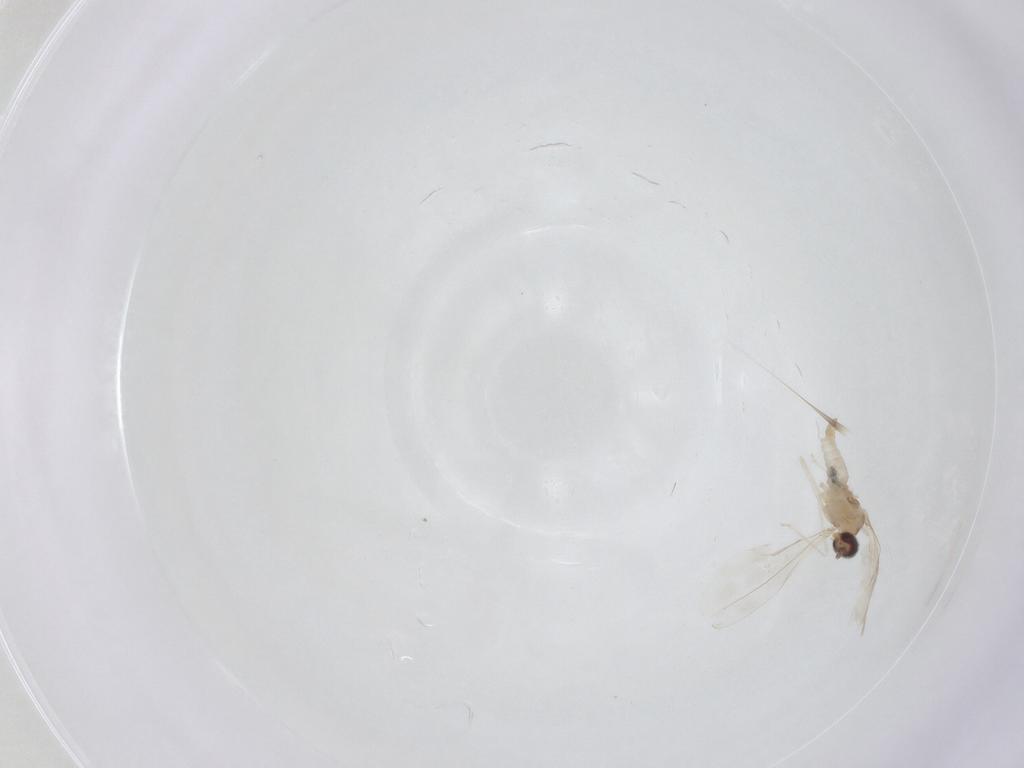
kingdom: Animalia
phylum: Arthropoda
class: Insecta
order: Diptera
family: Cecidomyiidae
